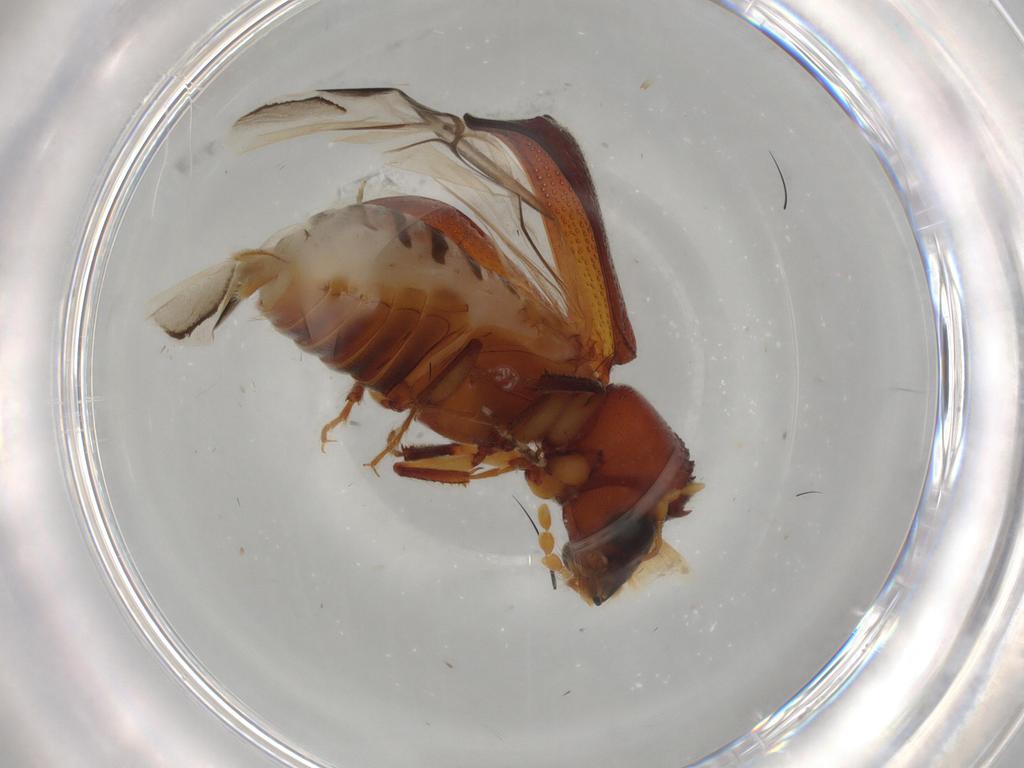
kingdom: Animalia
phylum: Arthropoda
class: Insecta
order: Coleoptera
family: Bostrichidae
